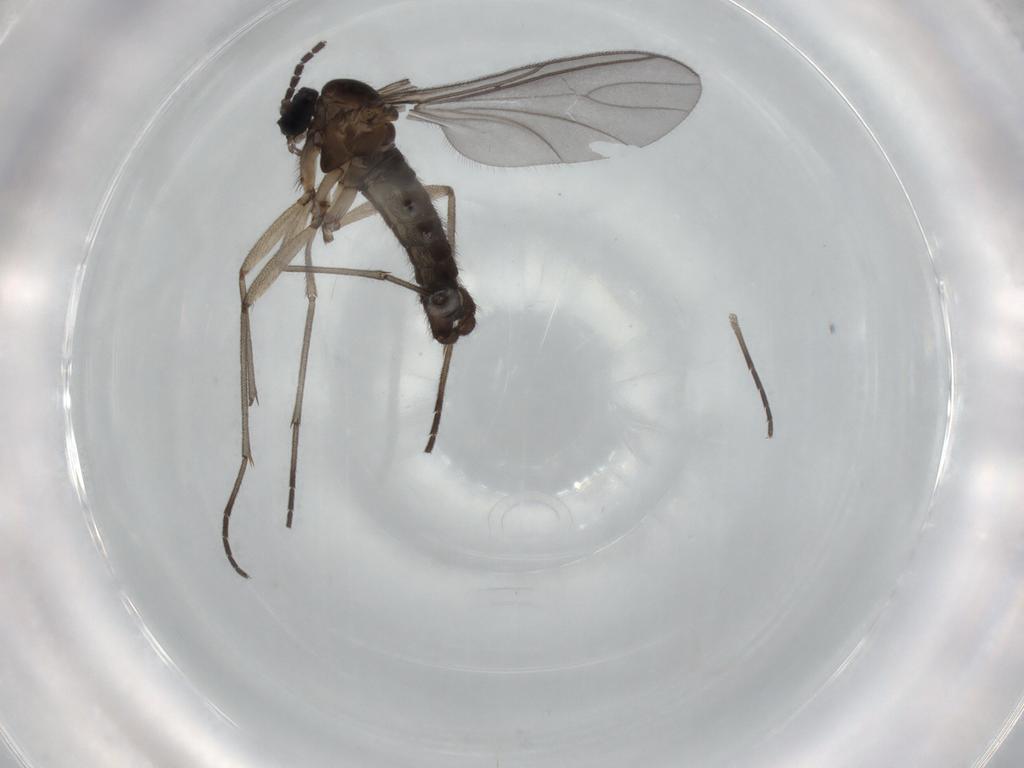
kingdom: Animalia
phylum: Arthropoda
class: Insecta
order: Diptera
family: Sciaridae
